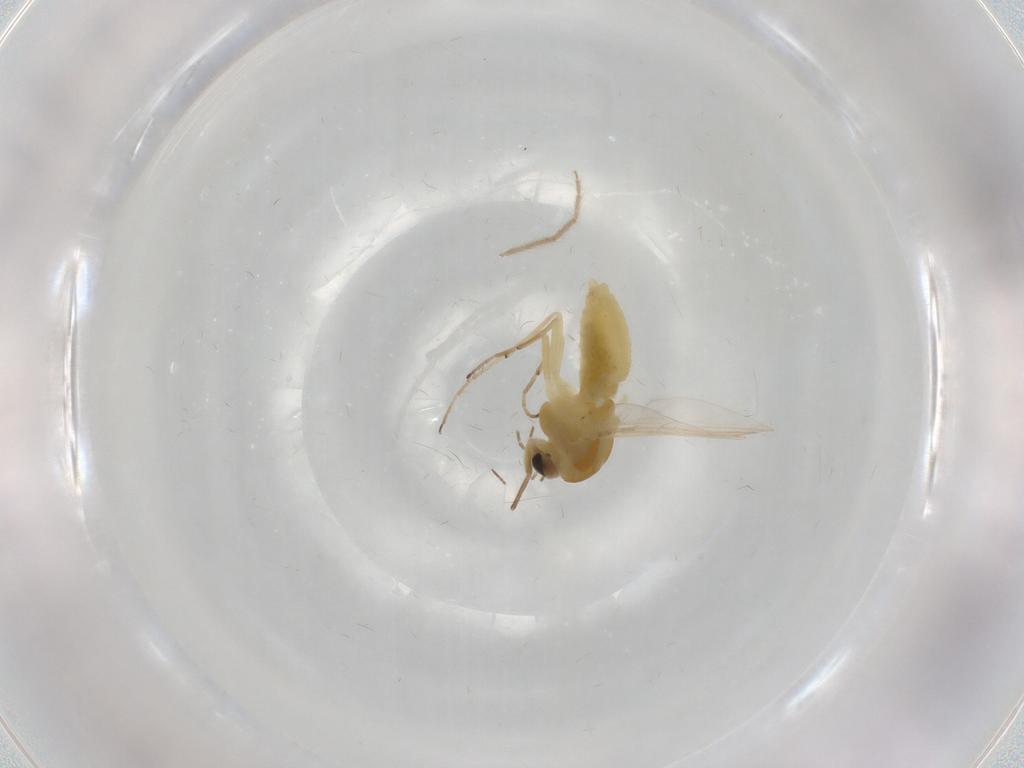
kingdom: Animalia
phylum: Arthropoda
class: Insecta
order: Diptera
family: Chironomidae
